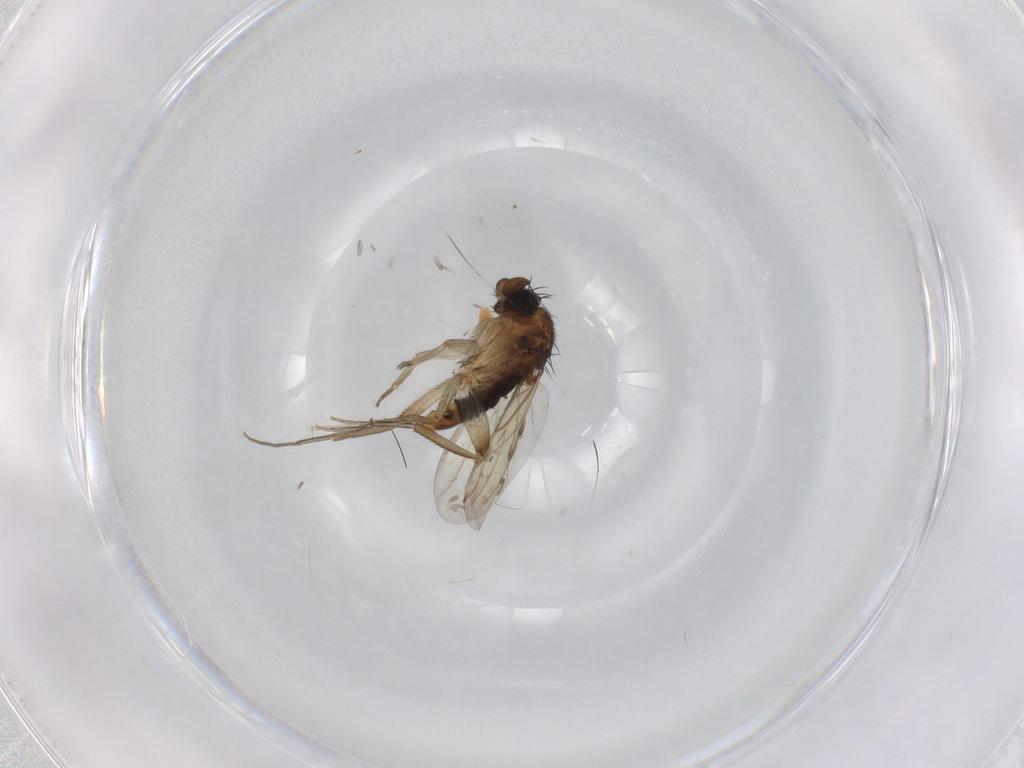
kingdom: Animalia
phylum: Arthropoda
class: Insecta
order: Diptera
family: Phoridae
